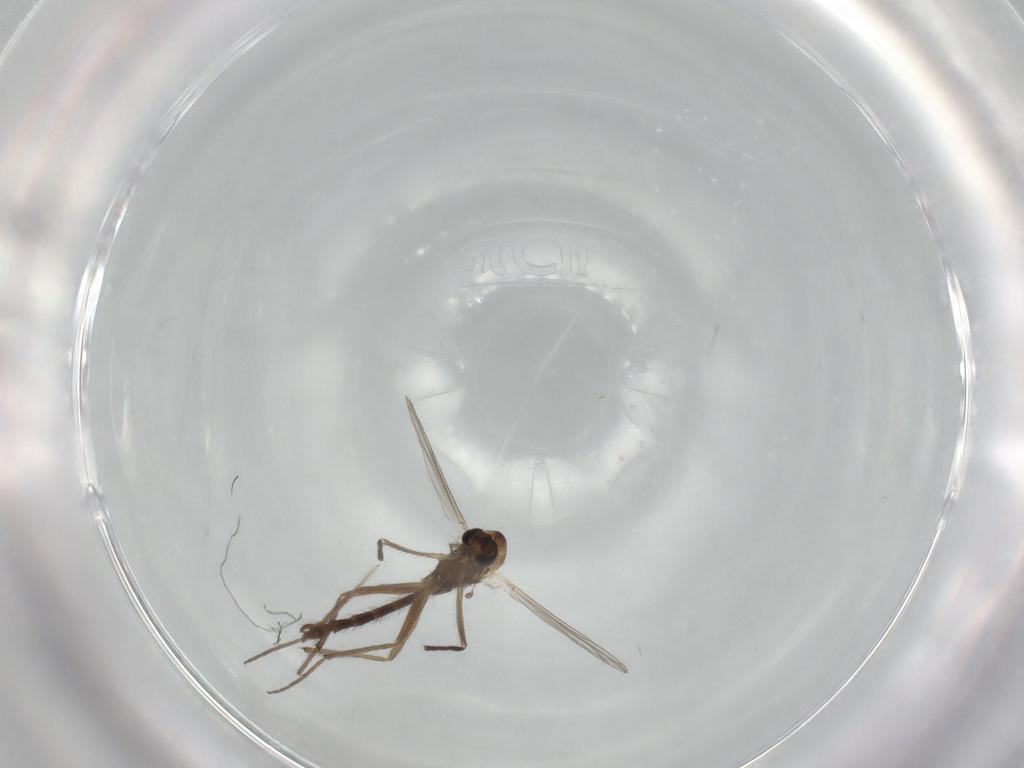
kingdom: Animalia
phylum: Arthropoda
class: Insecta
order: Diptera
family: Chironomidae
